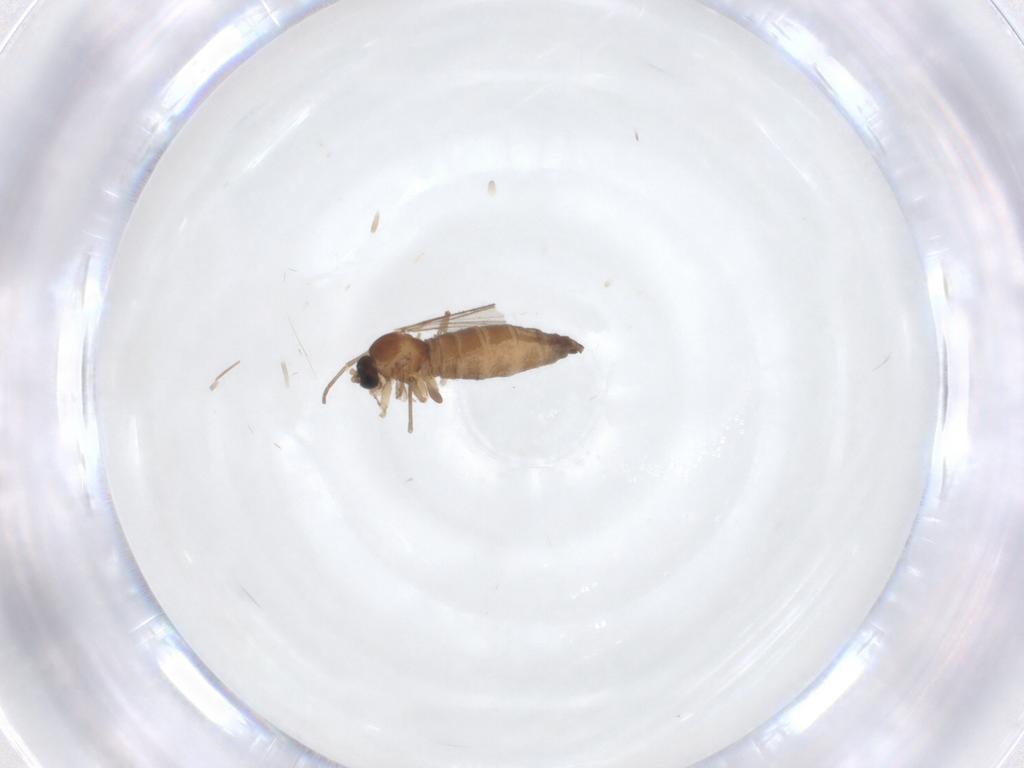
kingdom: Animalia
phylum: Arthropoda
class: Insecta
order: Diptera
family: Sciaridae
